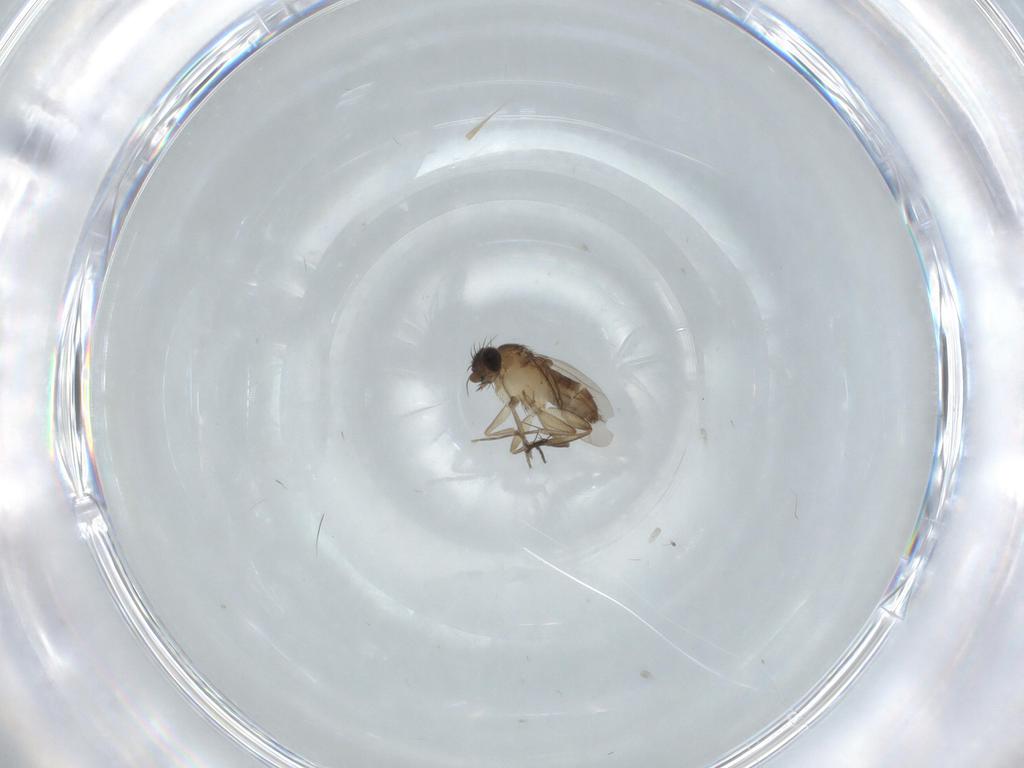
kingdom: Animalia
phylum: Arthropoda
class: Insecta
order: Diptera
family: Phoridae
